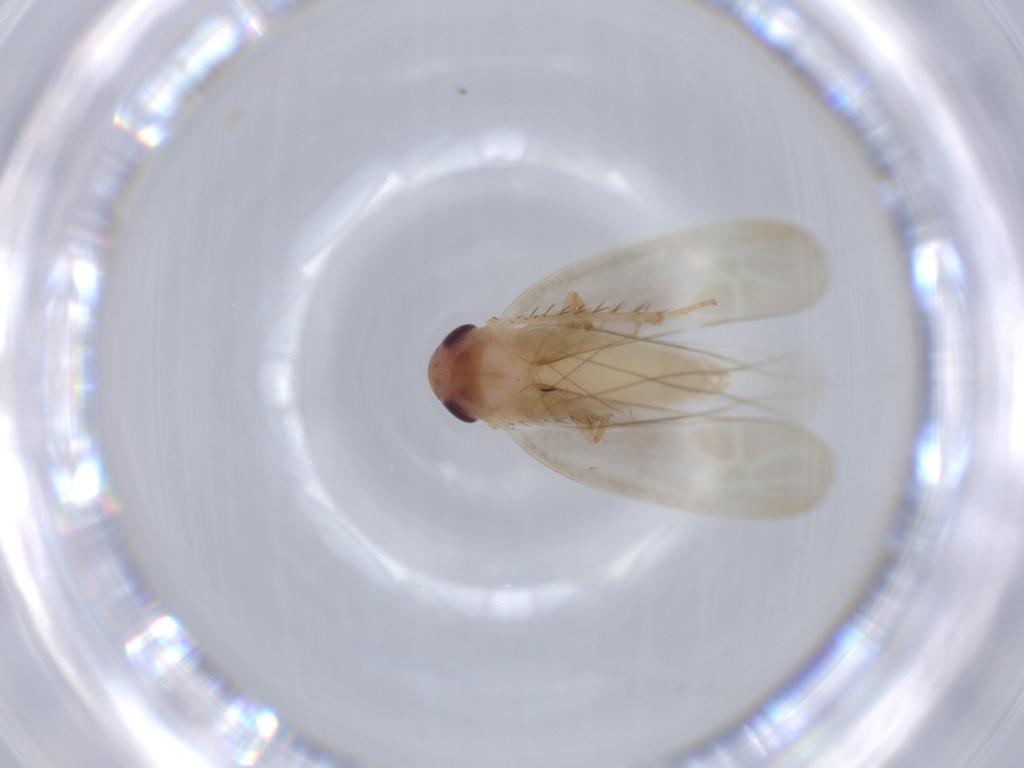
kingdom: Animalia
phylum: Arthropoda
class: Insecta
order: Hemiptera
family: Cicadellidae
